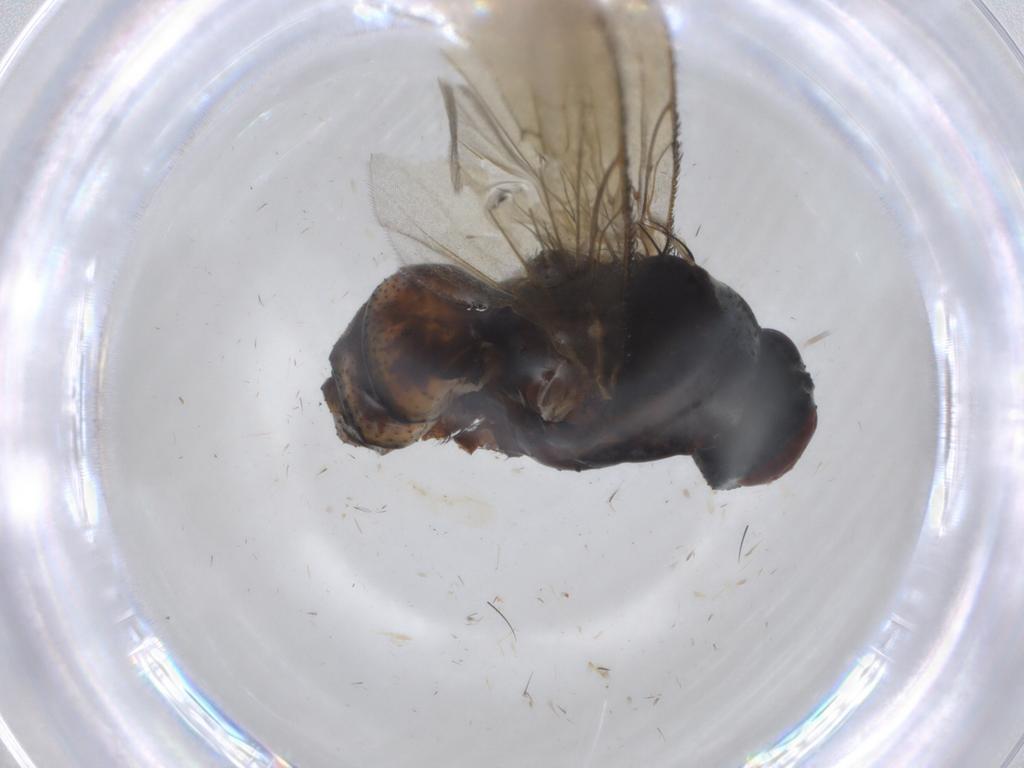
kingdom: Animalia
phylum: Arthropoda
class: Insecta
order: Diptera
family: Anthomyiidae
